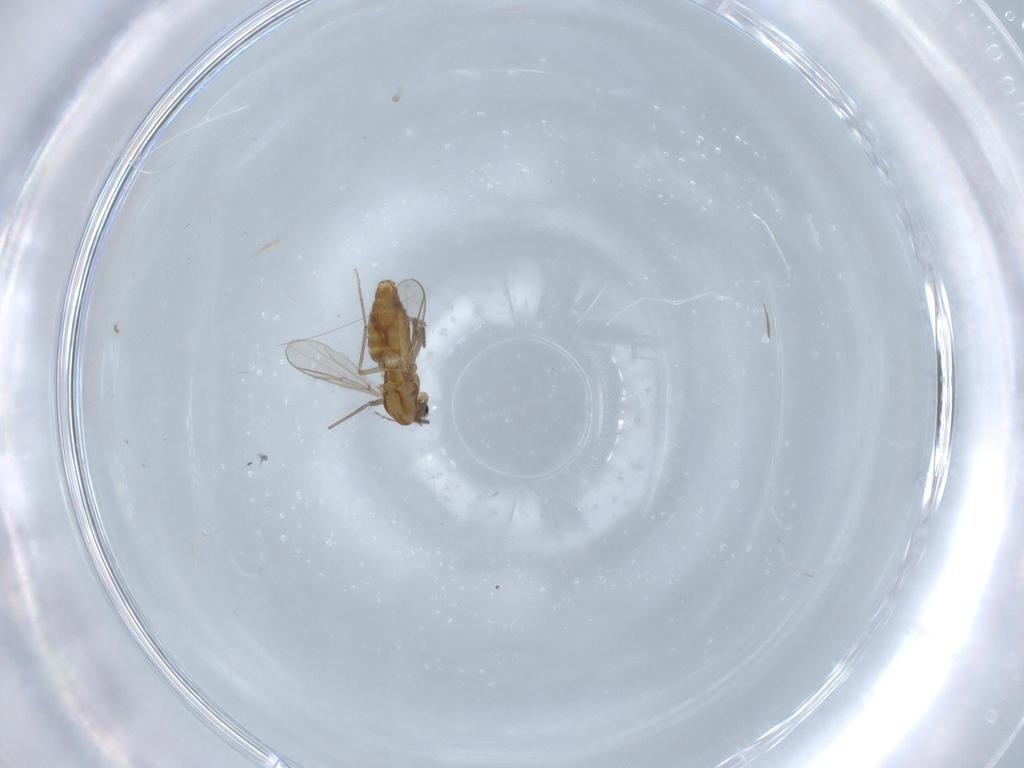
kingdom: Animalia
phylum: Arthropoda
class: Insecta
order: Diptera
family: Chironomidae
